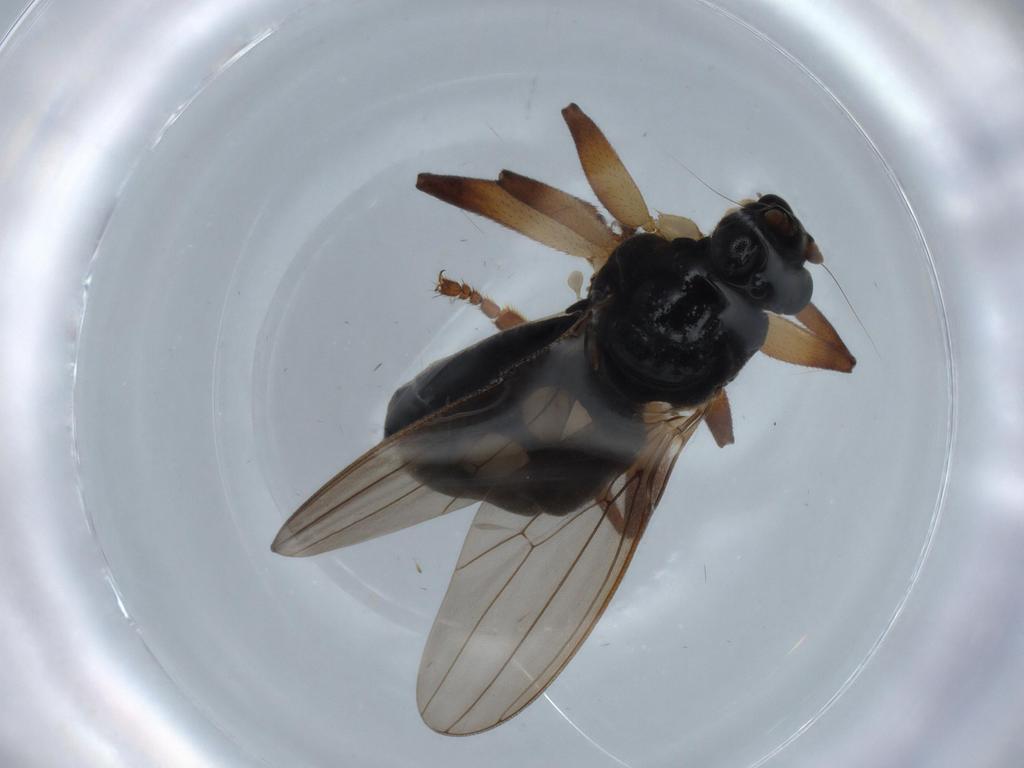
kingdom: Animalia
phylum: Arthropoda
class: Insecta
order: Diptera
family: Sphaeroceridae
